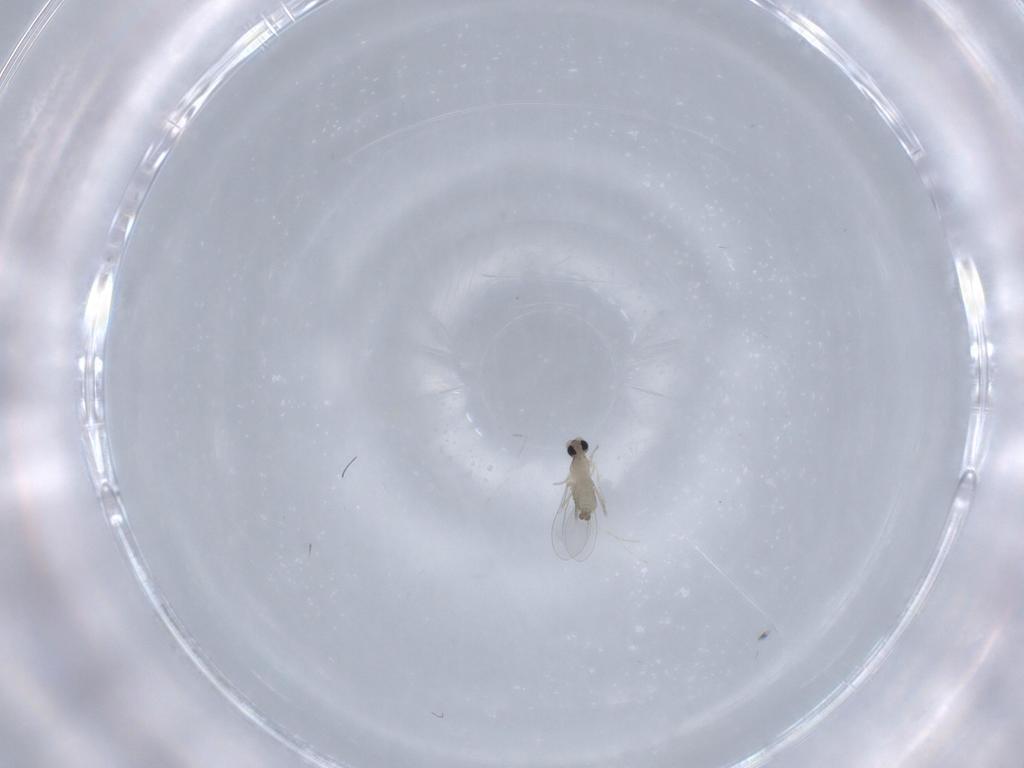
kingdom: Animalia
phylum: Arthropoda
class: Insecta
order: Diptera
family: Cecidomyiidae
